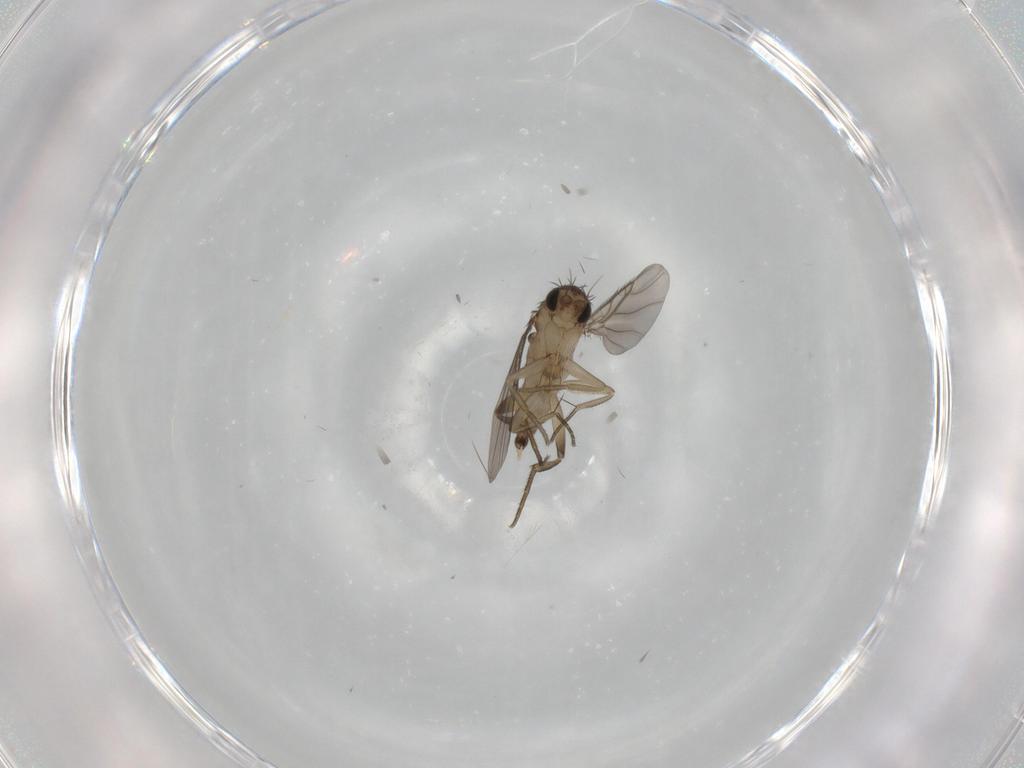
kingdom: Animalia
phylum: Arthropoda
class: Insecta
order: Diptera
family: Phoridae
